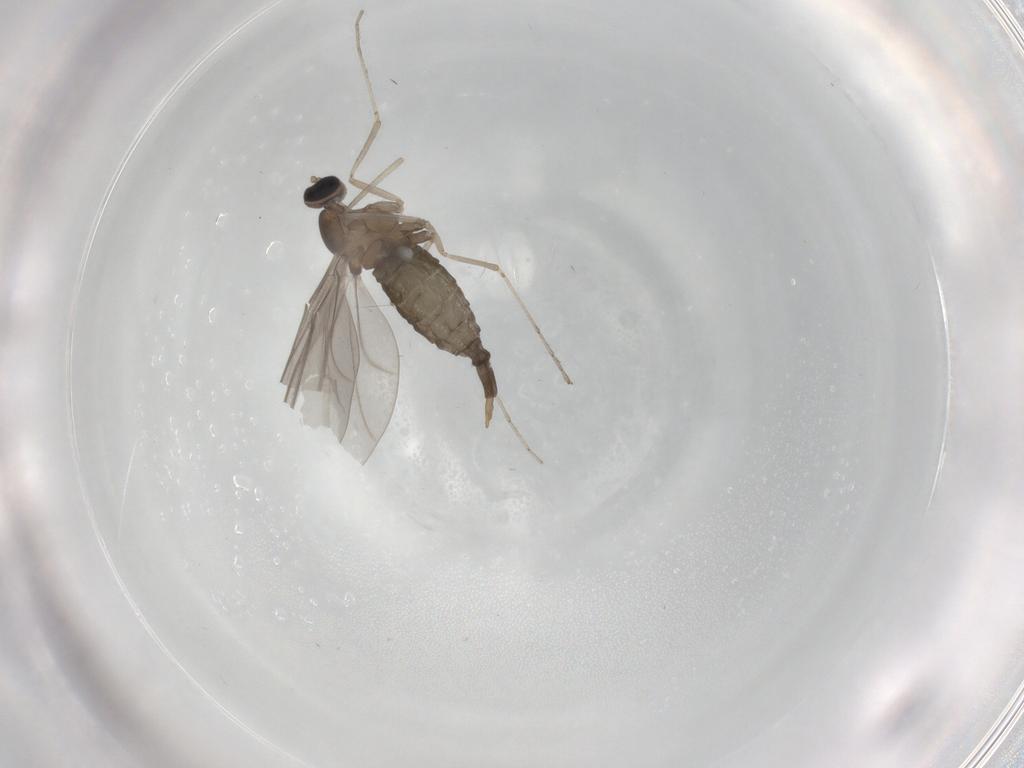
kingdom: Animalia
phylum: Arthropoda
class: Insecta
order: Diptera
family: Cecidomyiidae
